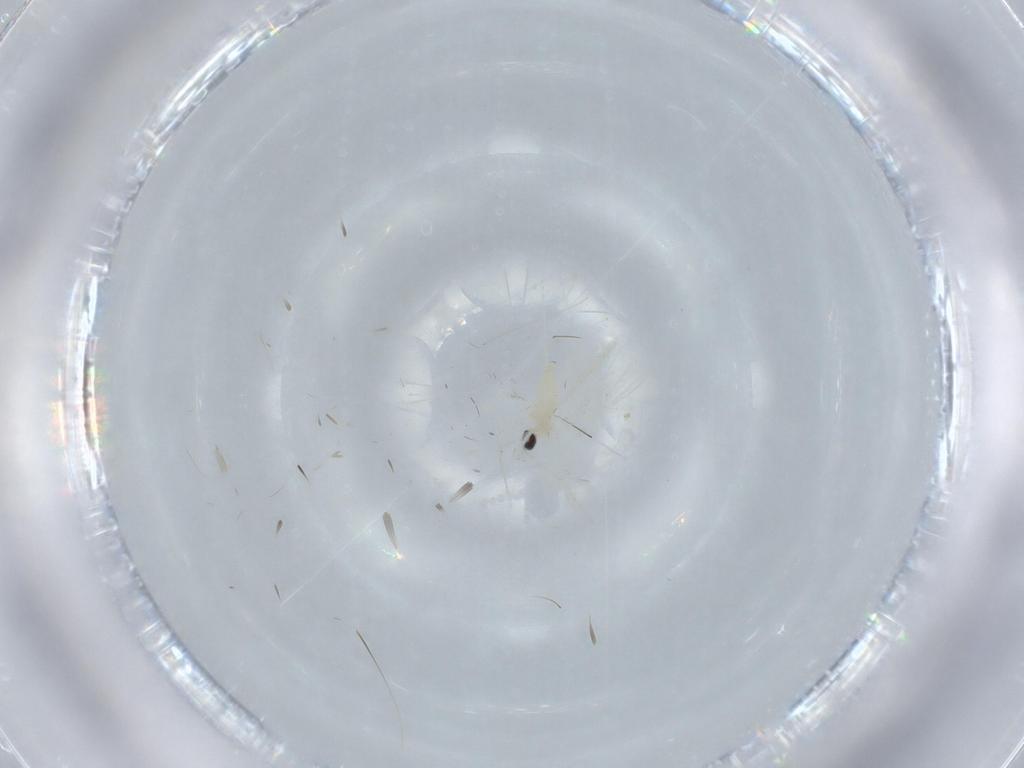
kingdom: Animalia
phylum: Arthropoda
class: Insecta
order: Diptera
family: Cecidomyiidae
